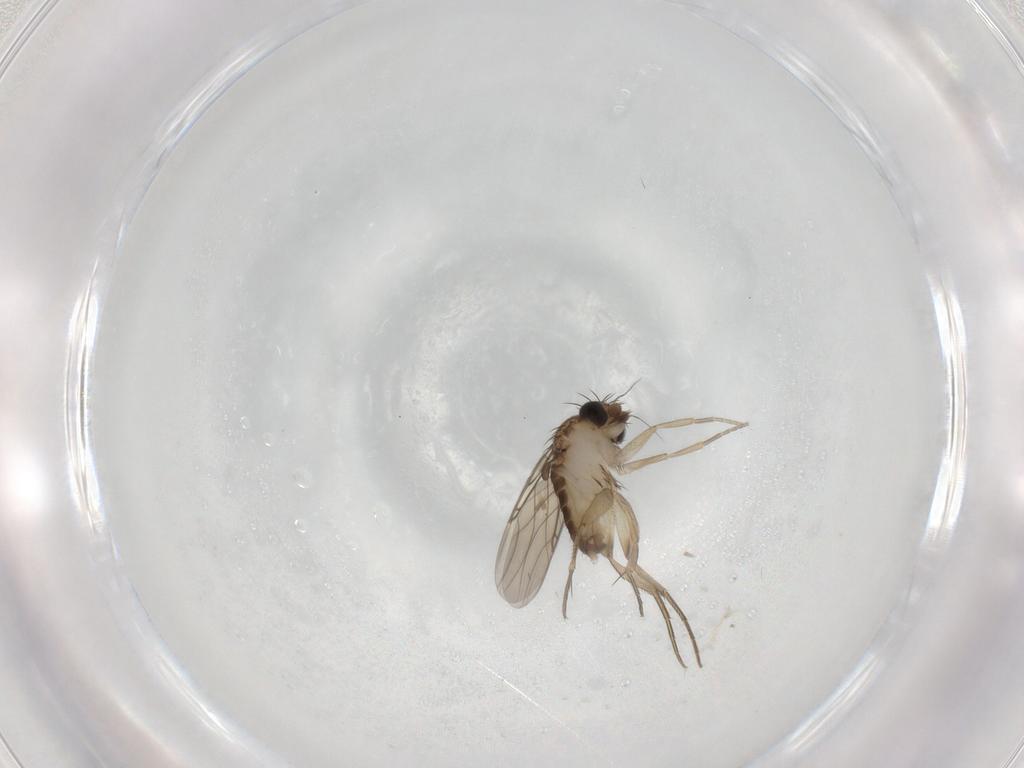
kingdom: Animalia
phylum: Arthropoda
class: Insecta
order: Diptera
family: Phoridae
